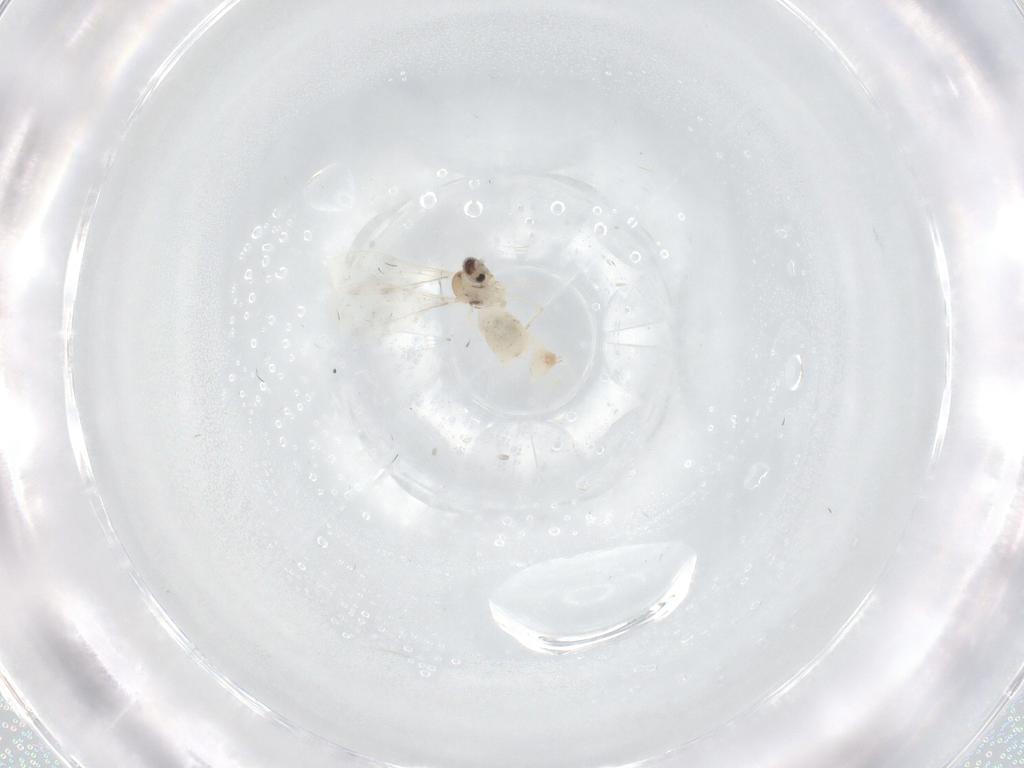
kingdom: Animalia
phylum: Arthropoda
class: Insecta
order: Diptera
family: Cecidomyiidae
